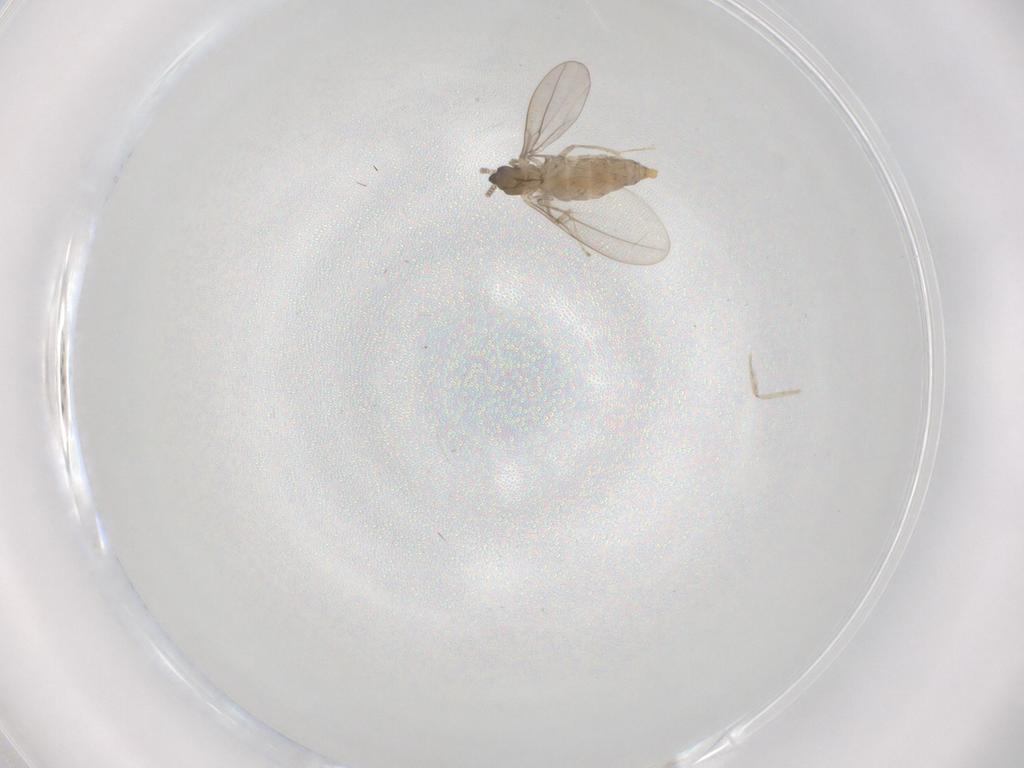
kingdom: Animalia
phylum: Arthropoda
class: Insecta
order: Diptera
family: Cecidomyiidae
